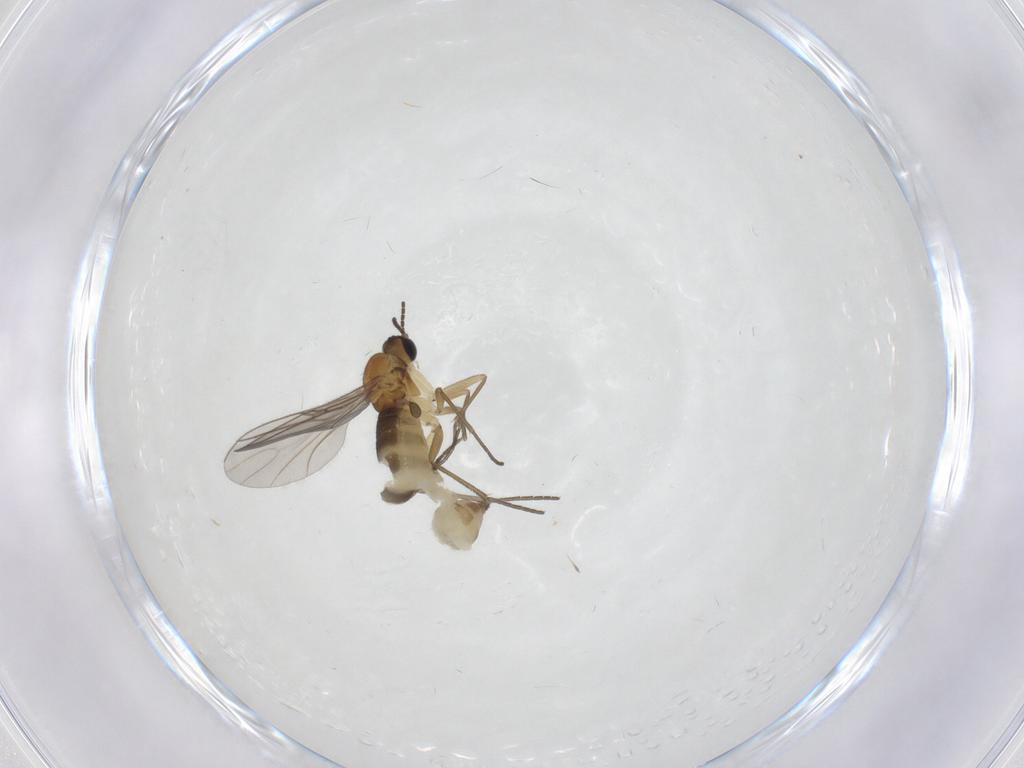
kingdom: Animalia
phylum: Arthropoda
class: Insecta
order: Diptera
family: Sciaridae
